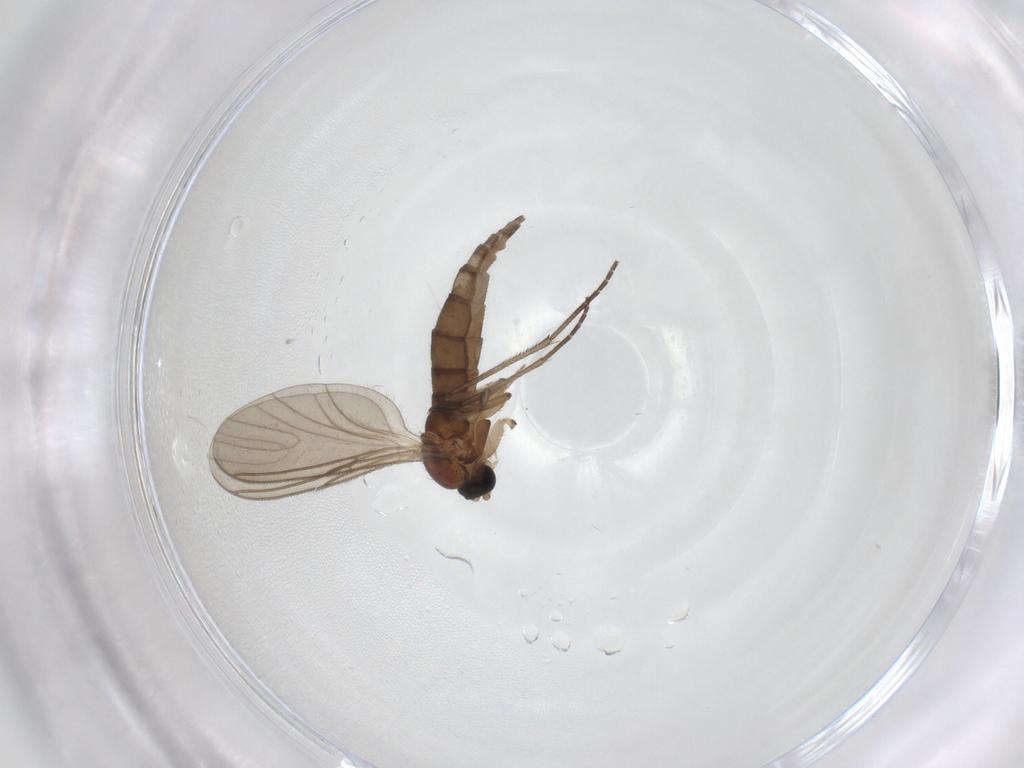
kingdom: Animalia
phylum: Arthropoda
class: Insecta
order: Diptera
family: Sciaridae
